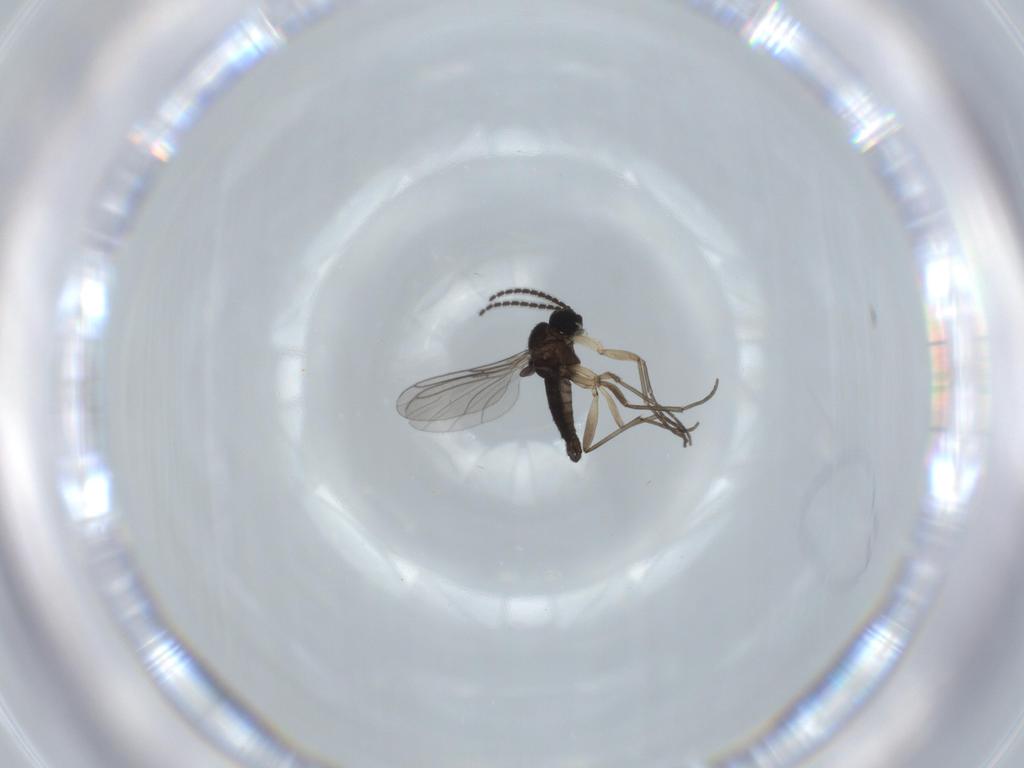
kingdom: Animalia
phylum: Arthropoda
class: Insecta
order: Diptera
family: Sciaridae
